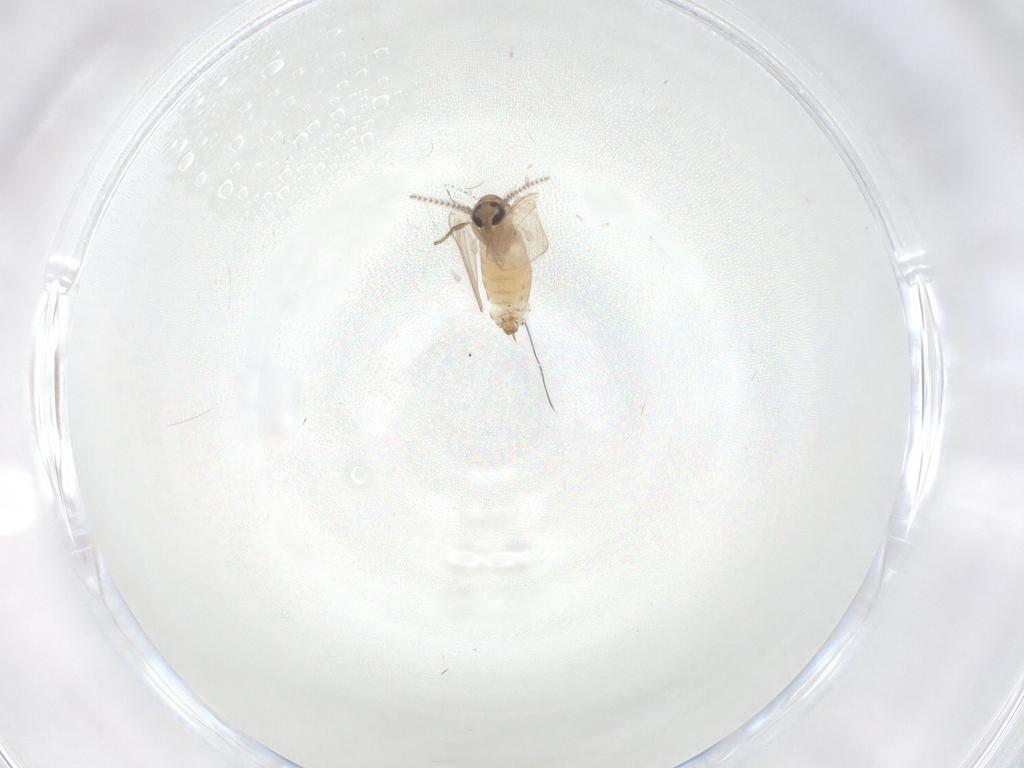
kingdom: Animalia
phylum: Arthropoda
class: Insecta
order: Diptera
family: Psychodidae
